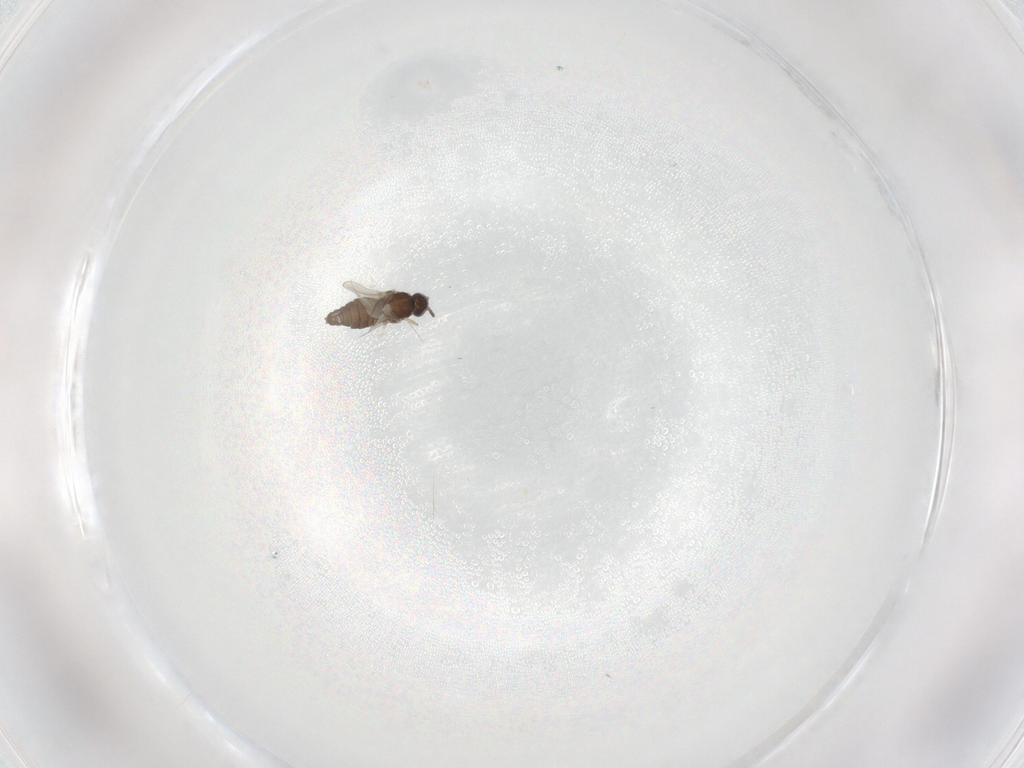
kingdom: Animalia
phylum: Arthropoda
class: Insecta
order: Diptera
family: Cecidomyiidae
